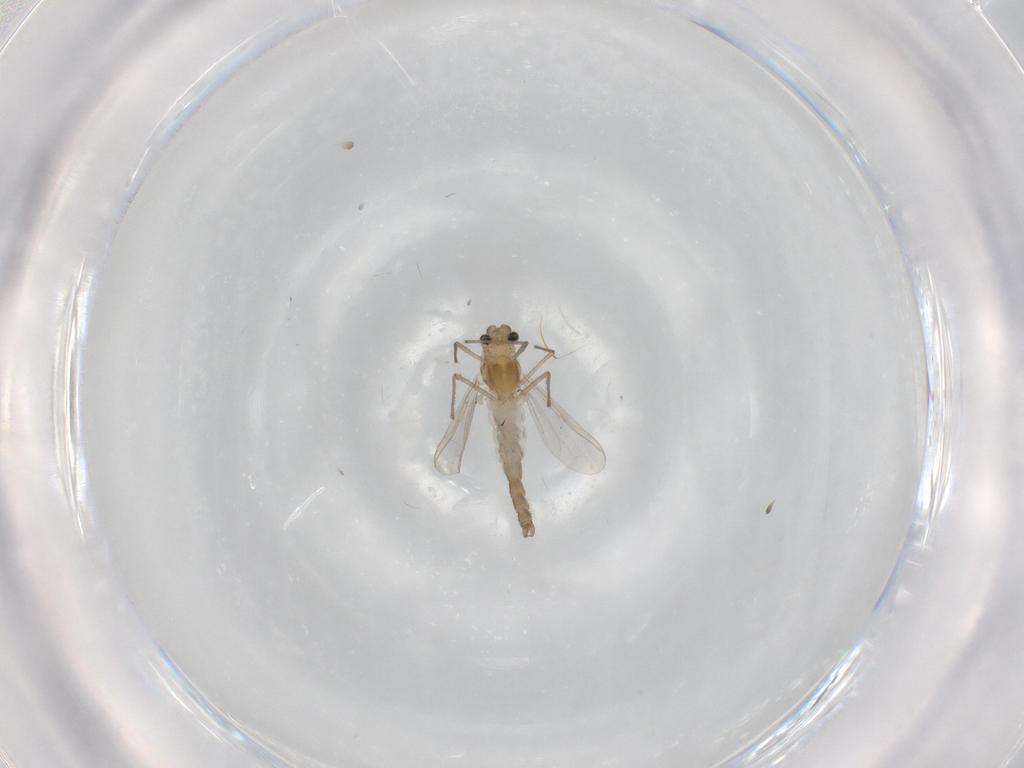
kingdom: Animalia
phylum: Arthropoda
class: Insecta
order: Diptera
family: Chironomidae
